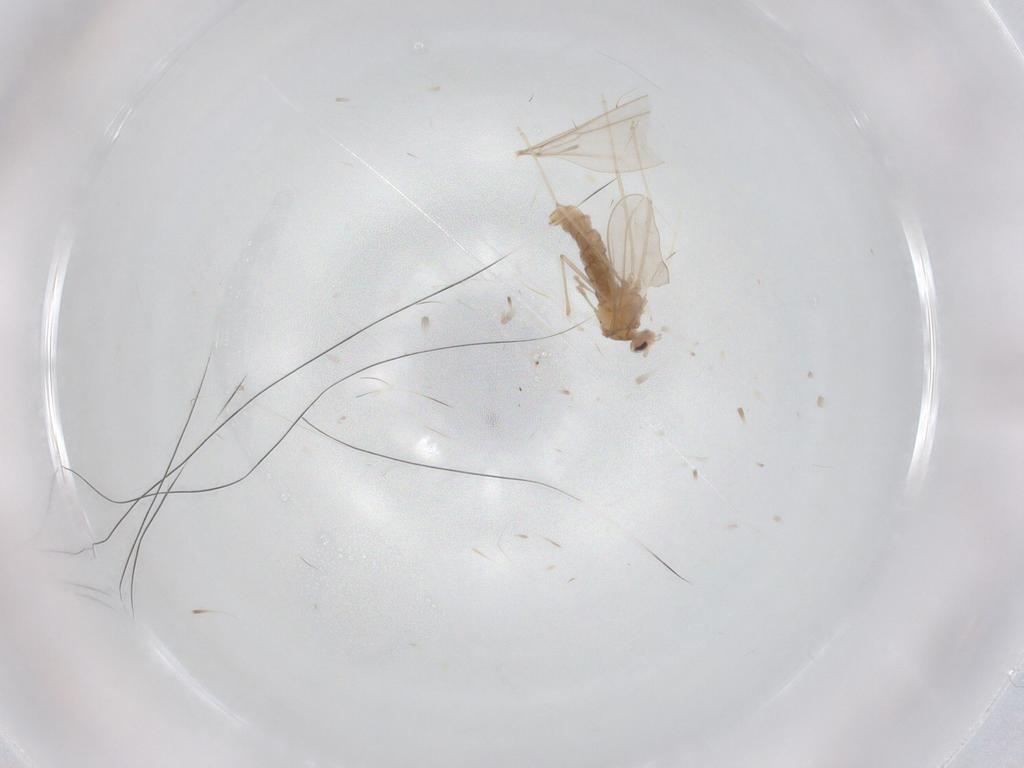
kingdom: Animalia
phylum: Arthropoda
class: Insecta
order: Diptera
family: Cecidomyiidae
